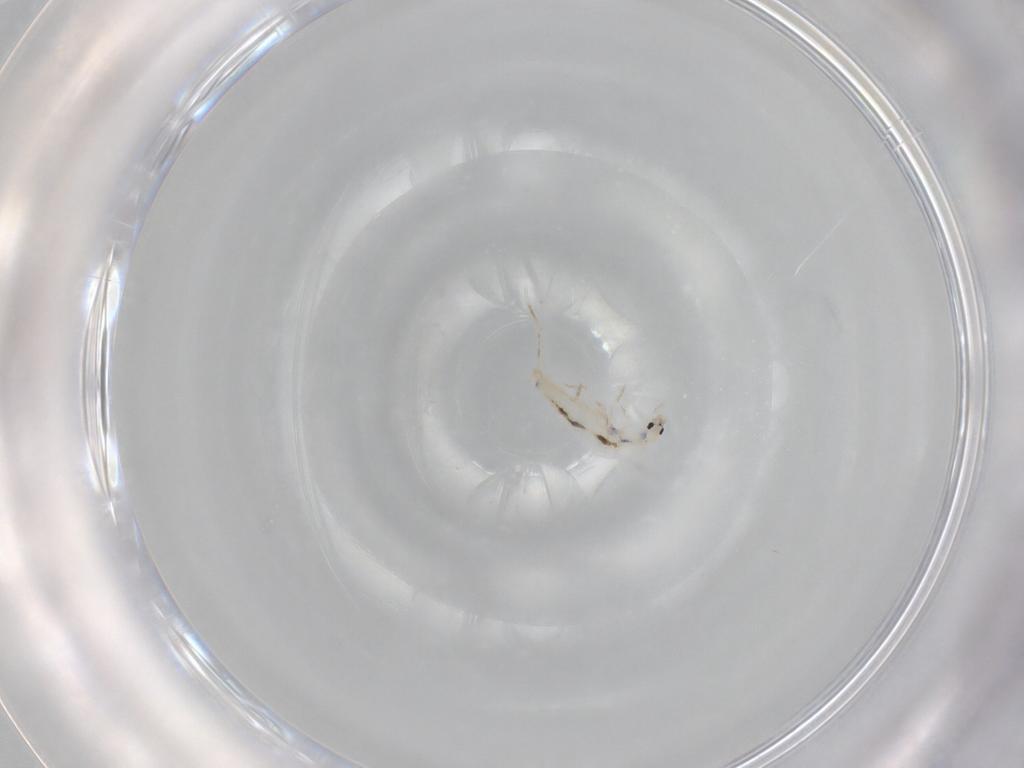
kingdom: Animalia
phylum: Arthropoda
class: Collembola
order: Entomobryomorpha
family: Entomobryidae
